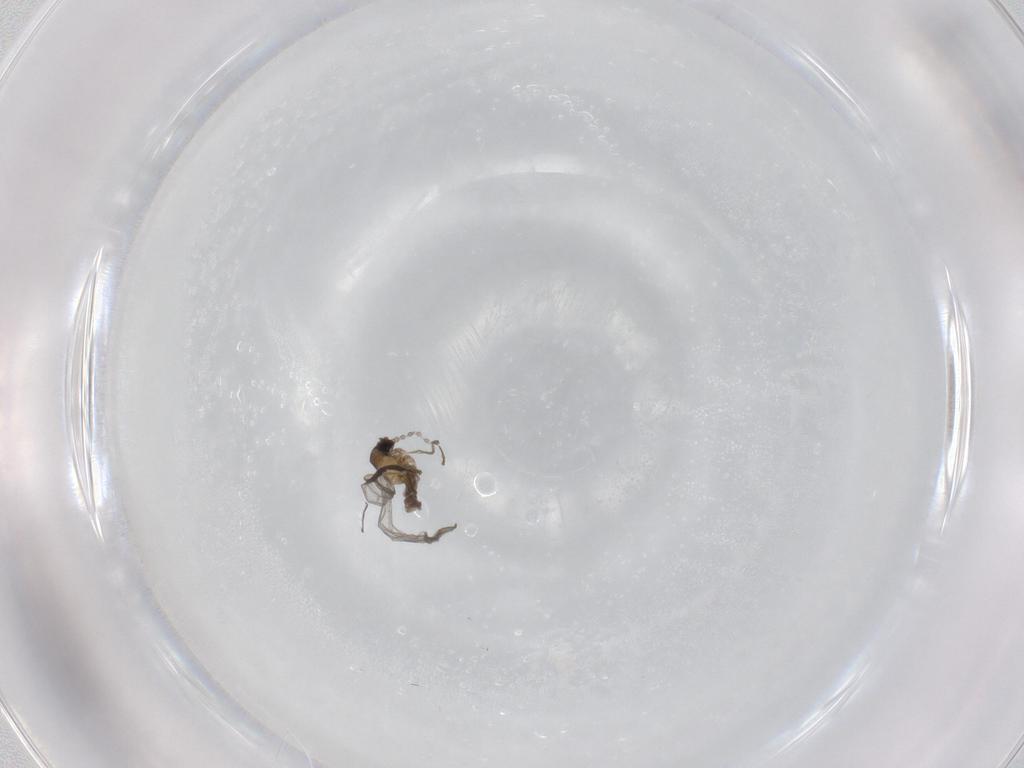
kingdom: Animalia
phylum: Arthropoda
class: Insecta
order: Diptera
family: Cecidomyiidae
